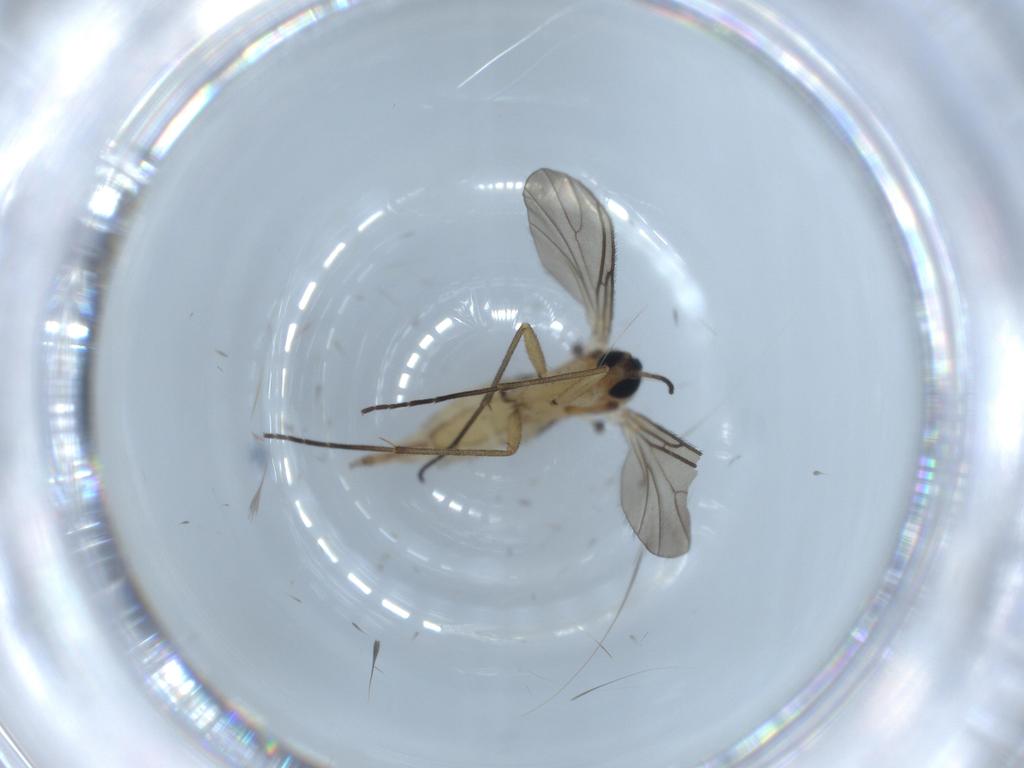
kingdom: Animalia
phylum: Arthropoda
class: Insecta
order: Diptera
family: Sciaridae
